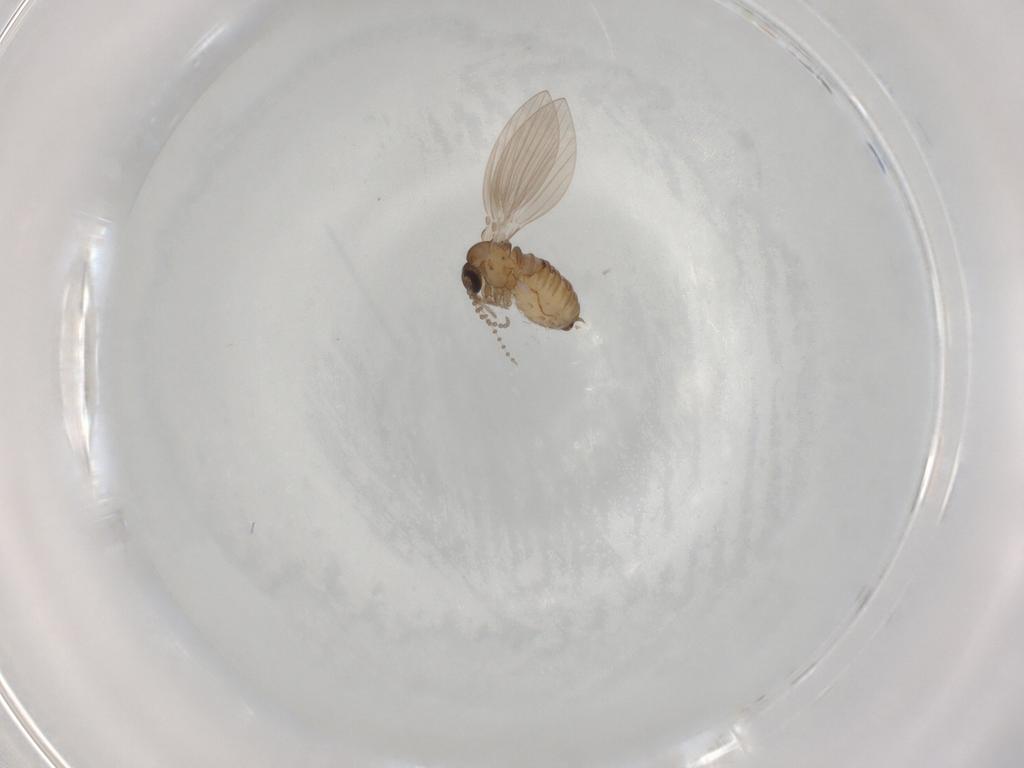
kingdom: Animalia
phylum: Arthropoda
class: Insecta
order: Diptera
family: Psychodidae
